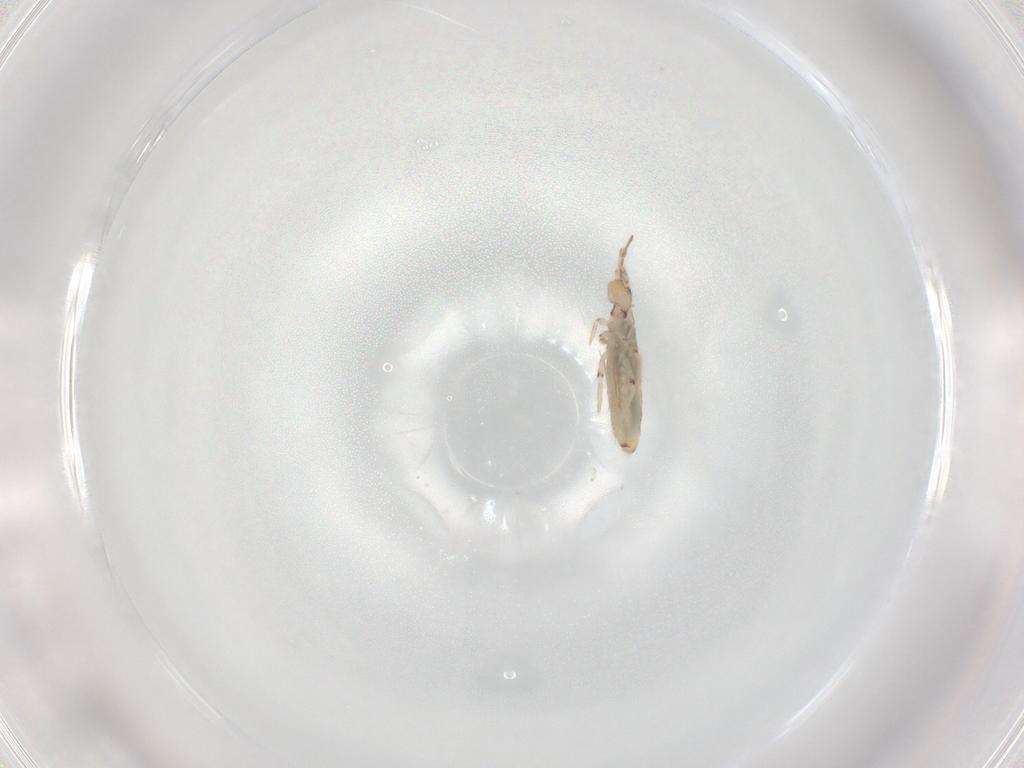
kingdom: Animalia
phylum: Arthropoda
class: Collembola
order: Entomobryomorpha
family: Entomobryidae
